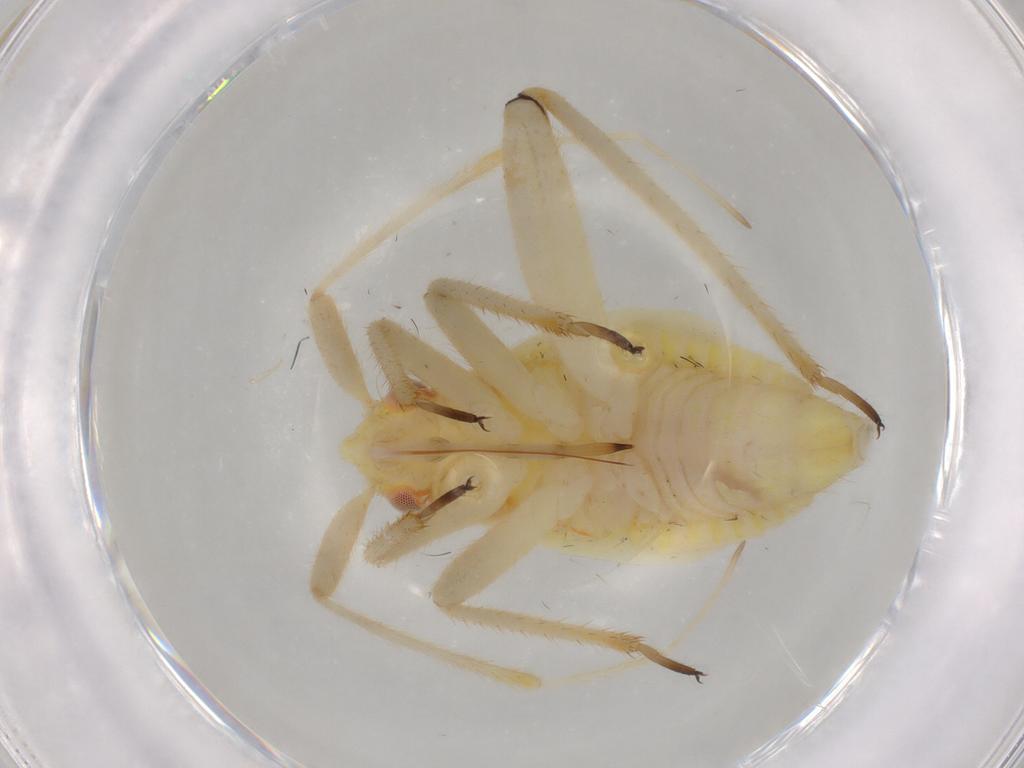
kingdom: Animalia
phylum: Arthropoda
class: Insecta
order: Hemiptera
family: Miridae
